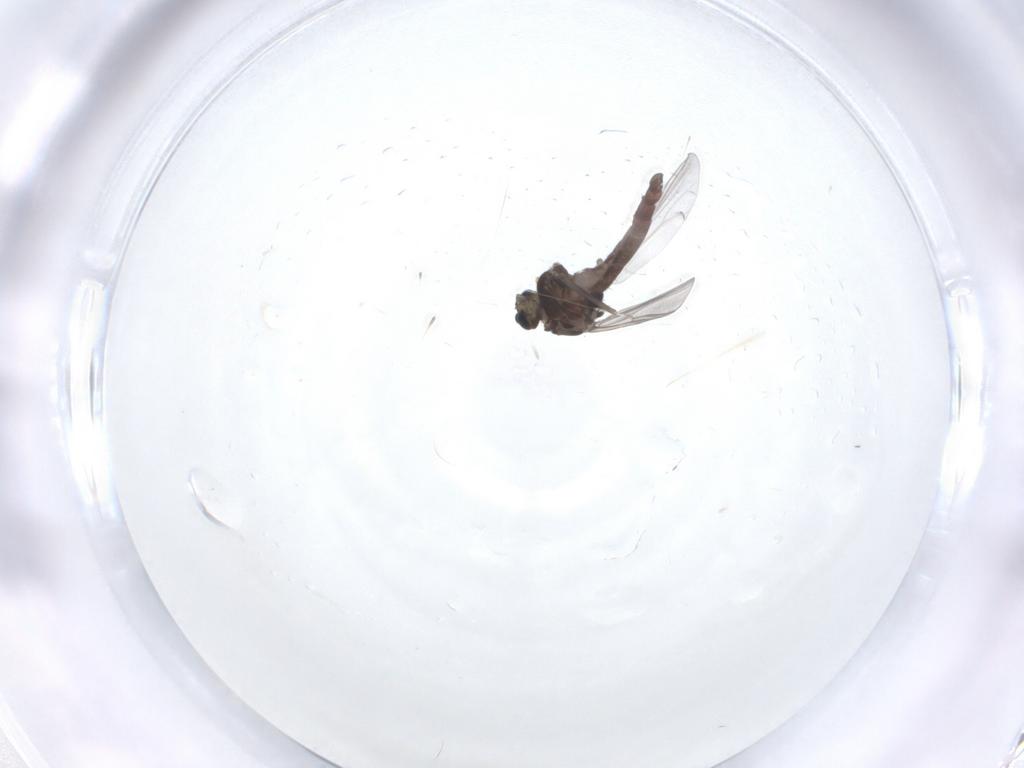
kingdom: Animalia
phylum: Arthropoda
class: Insecta
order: Diptera
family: Chironomidae
